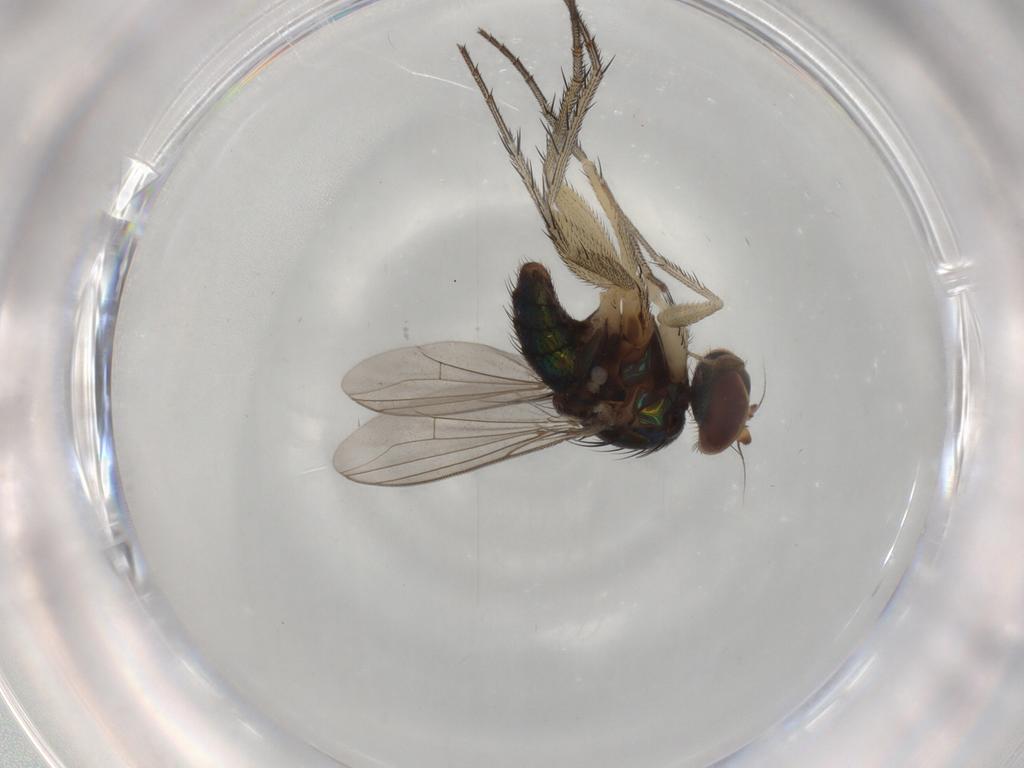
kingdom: Animalia
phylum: Arthropoda
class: Insecta
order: Diptera
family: Dolichopodidae
